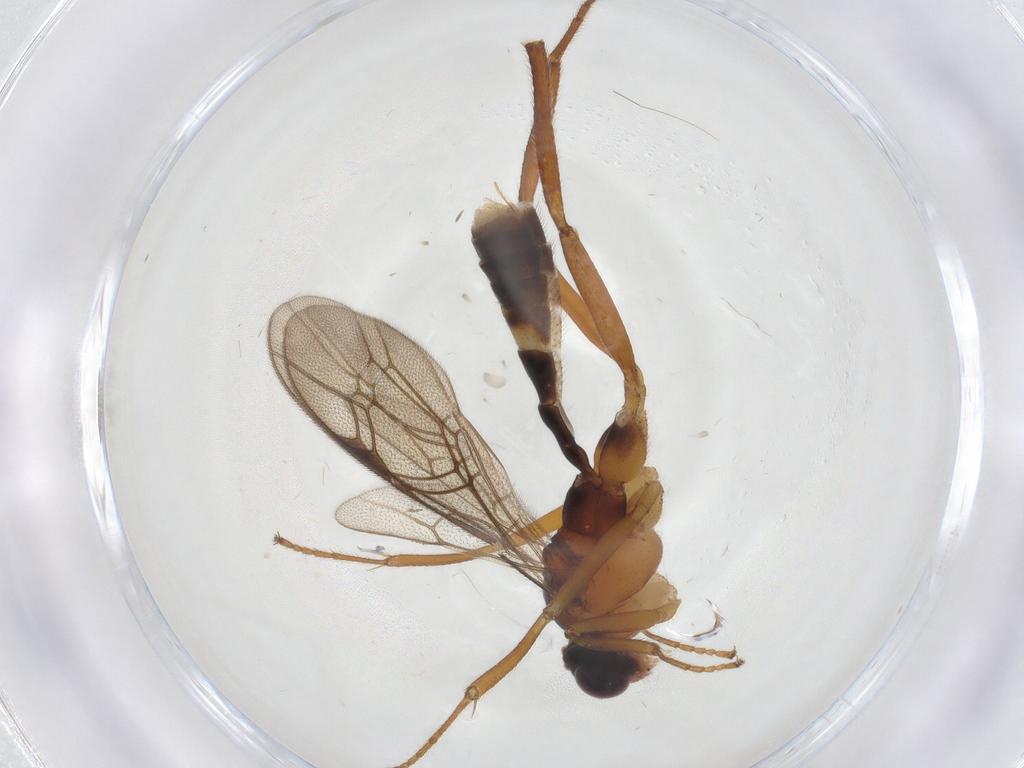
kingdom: Animalia
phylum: Arthropoda
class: Insecta
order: Hymenoptera
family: Ichneumonidae
